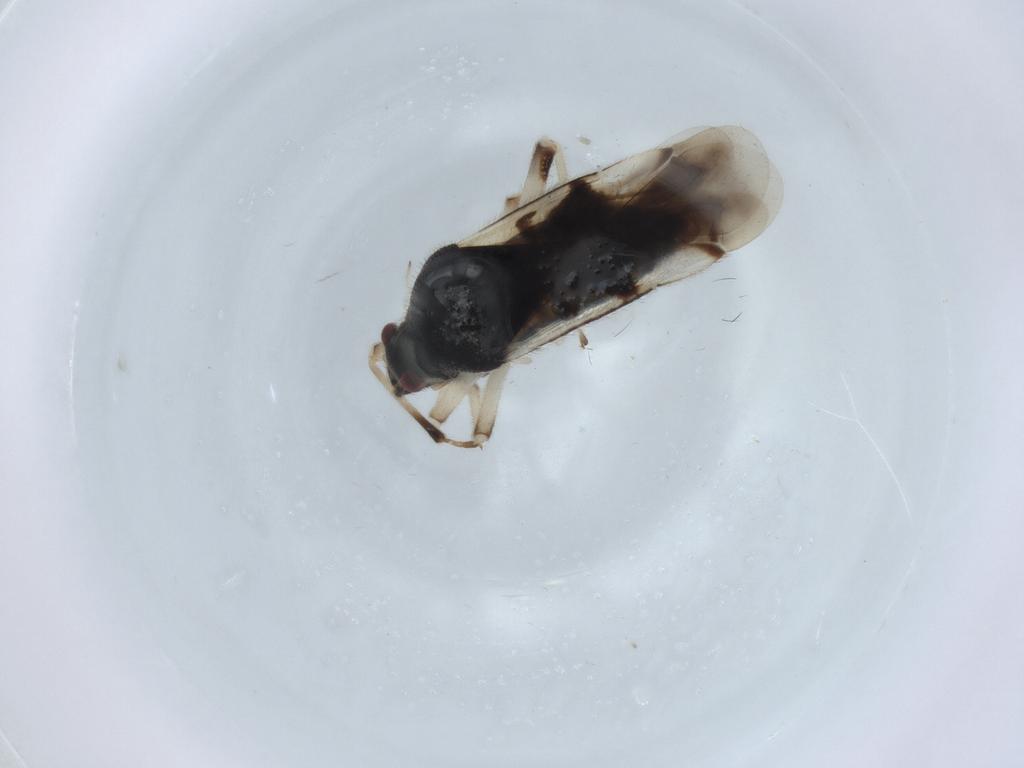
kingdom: Animalia
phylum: Arthropoda
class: Insecta
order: Hemiptera
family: Miridae
